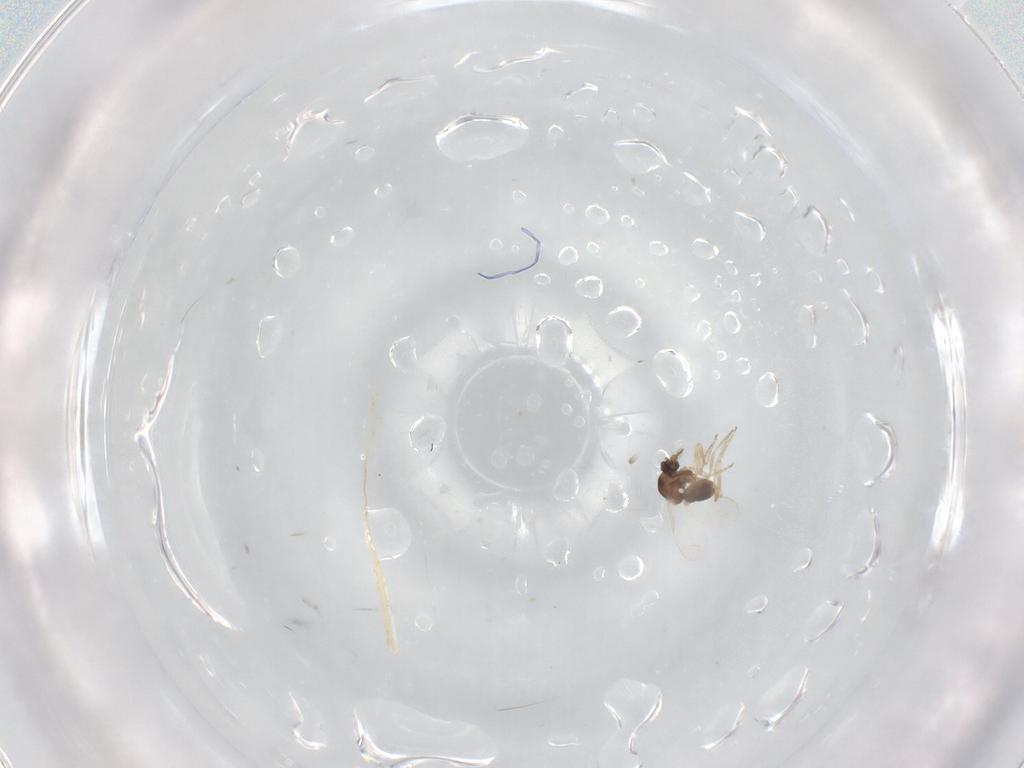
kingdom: Animalia
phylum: Arthropoda
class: Insecta
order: Diptera
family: Ceratopogonidae
